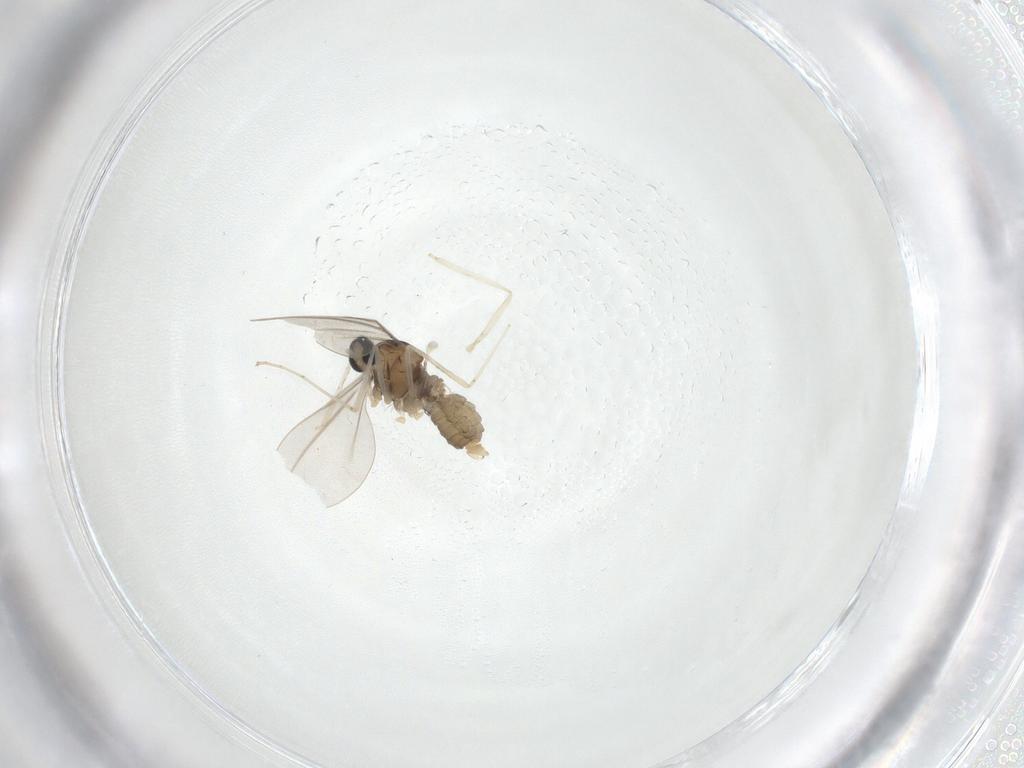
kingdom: Animalia
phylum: Arthropoda
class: Insecta
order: Diptera
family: Cecidomyiidae
